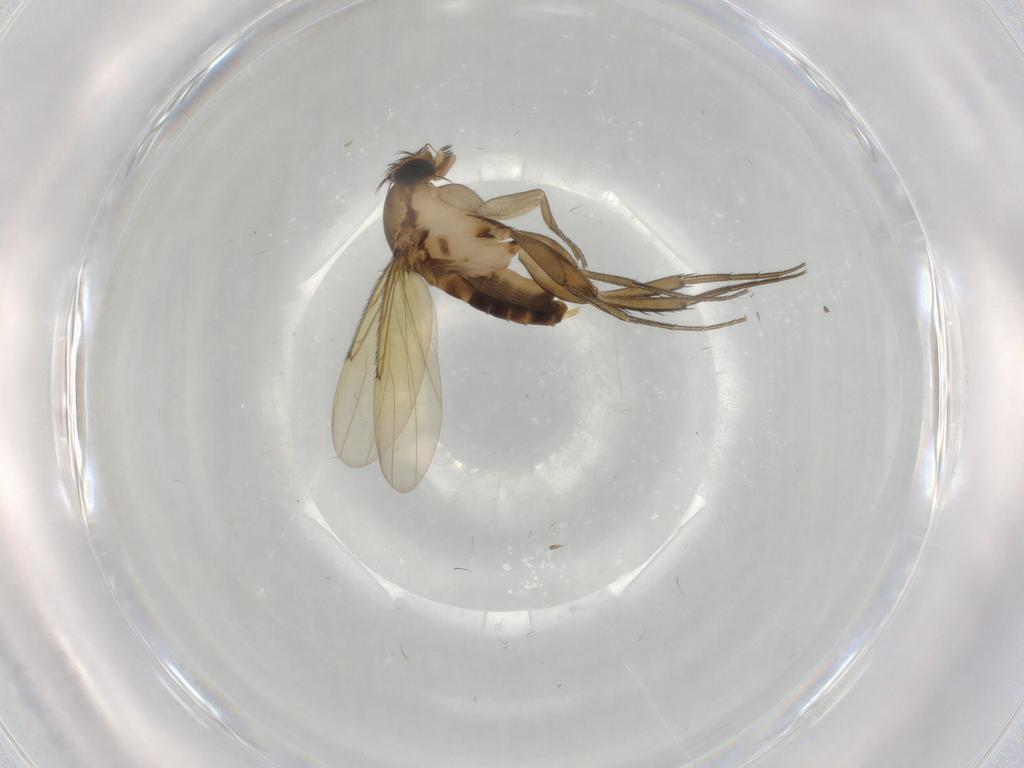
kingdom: Animalia
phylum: Arthropoda
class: Insecta
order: Diptera
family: Phoridae
